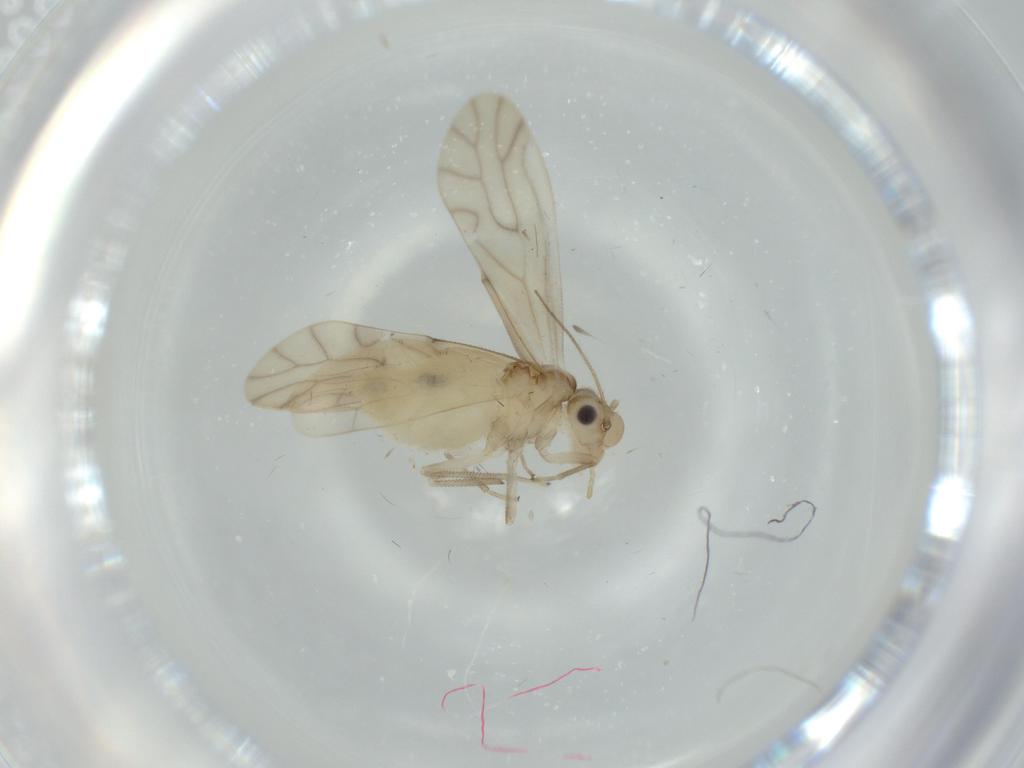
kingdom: Animalia
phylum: Arthropoda
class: Insecta
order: Psocodea
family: Caeciliusidae
